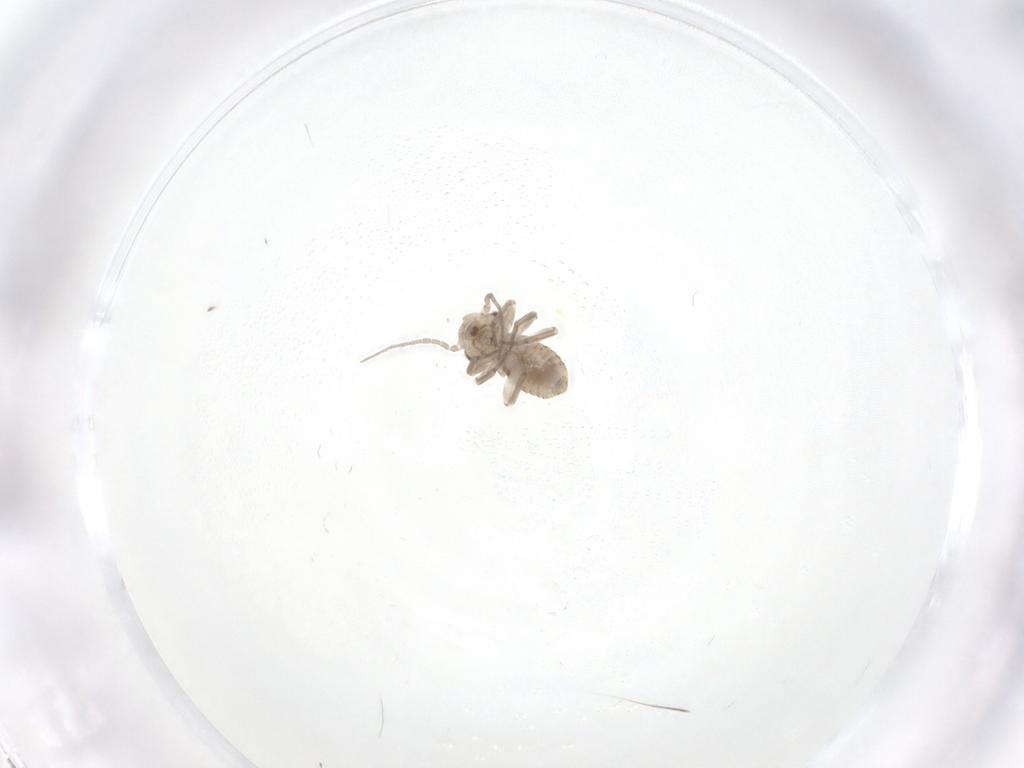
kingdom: Animalia
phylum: Arthropoda
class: Insecta
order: Psocodea
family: Myopsocidae
